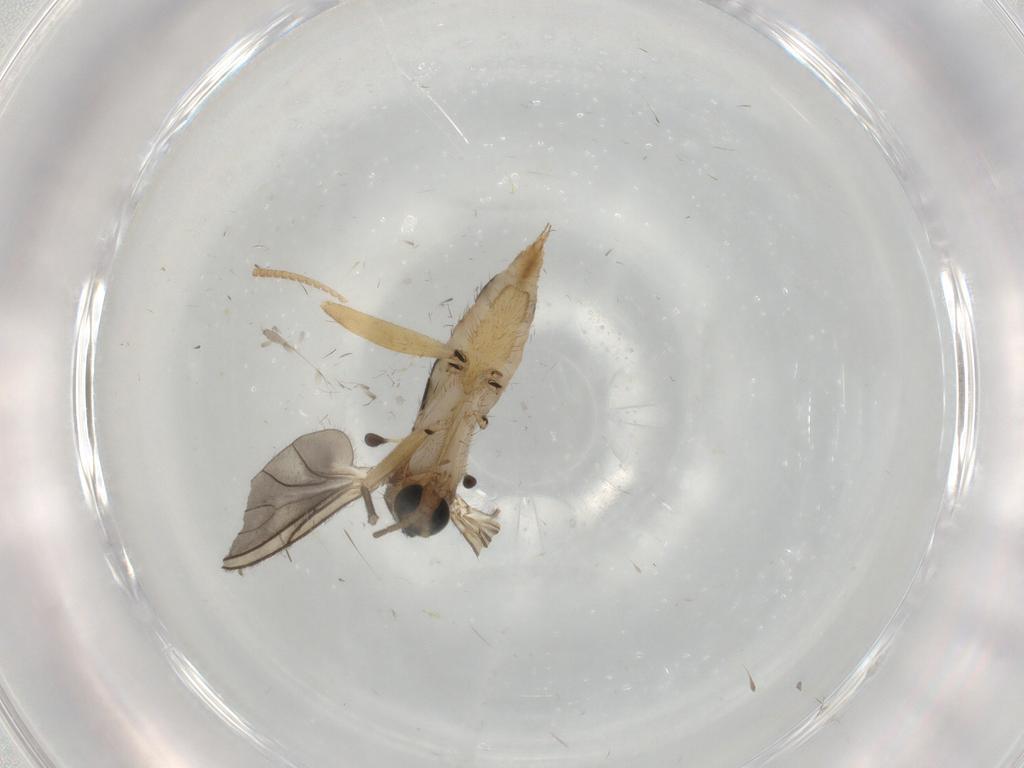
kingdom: Animalia
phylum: Arthropoda
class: Insecta
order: Diptera
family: Sciaridae
